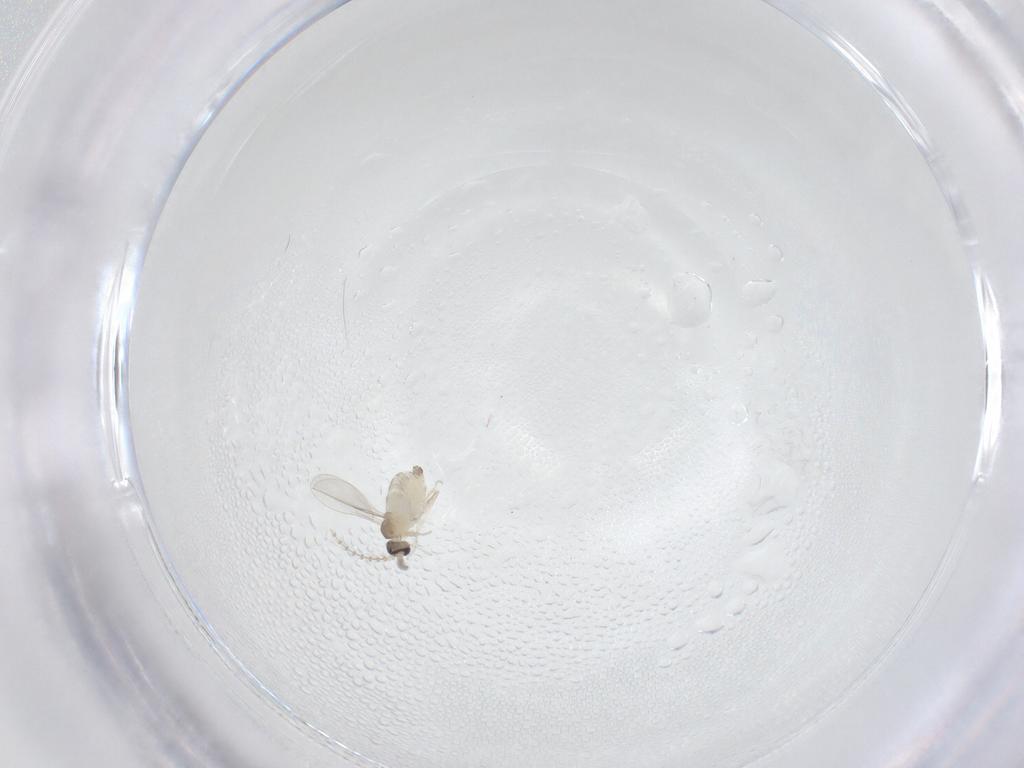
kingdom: Animalia
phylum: Arthropoda
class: Insecta
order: Diptera
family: Cecidomyiidae
